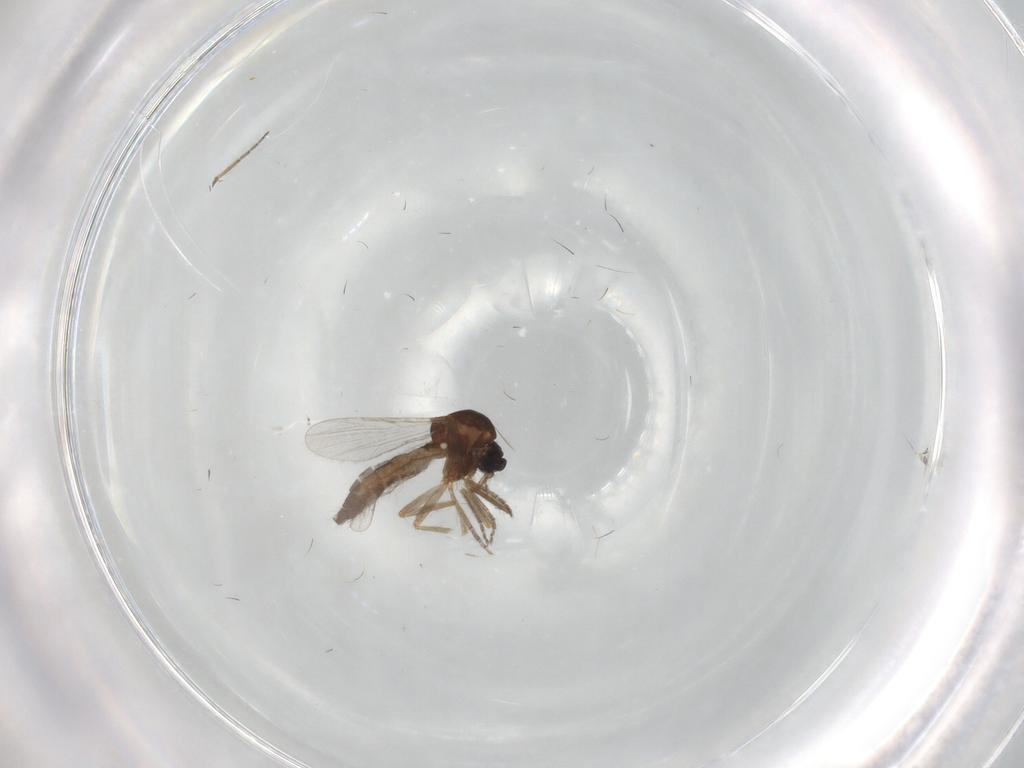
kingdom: Animalia
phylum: Arthropoda
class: Insecta
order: Diptera
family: Ceratopogonidae
